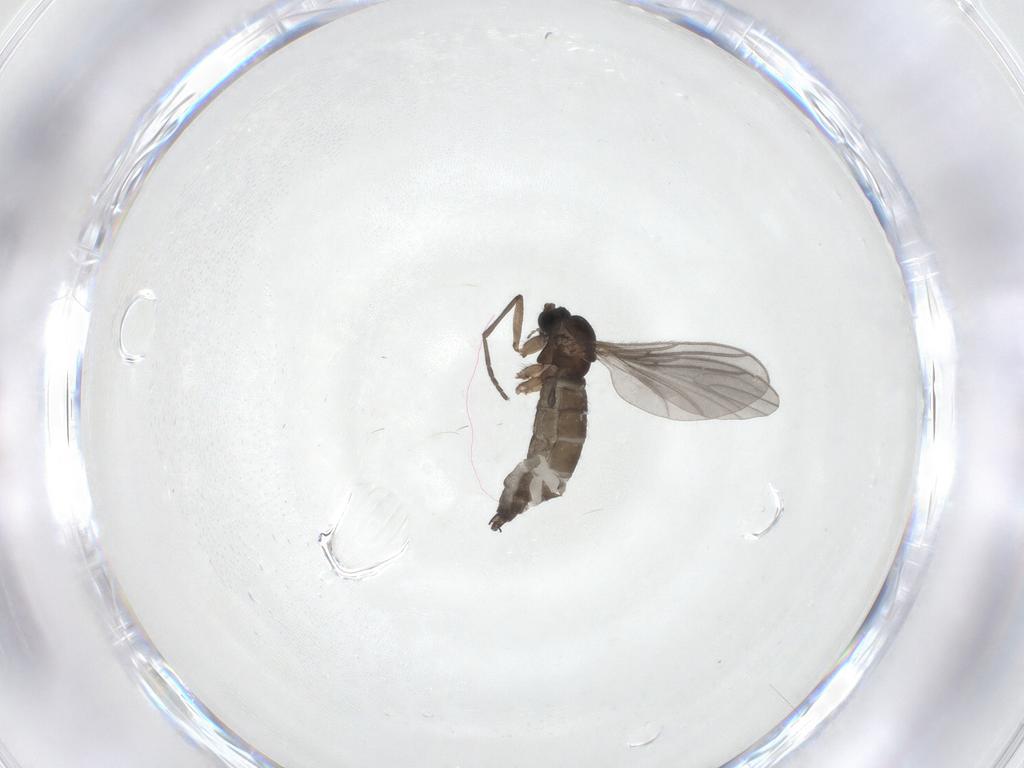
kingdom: Animalia
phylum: Arthropoda
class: Insecta
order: Diptera
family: Sciaridae
